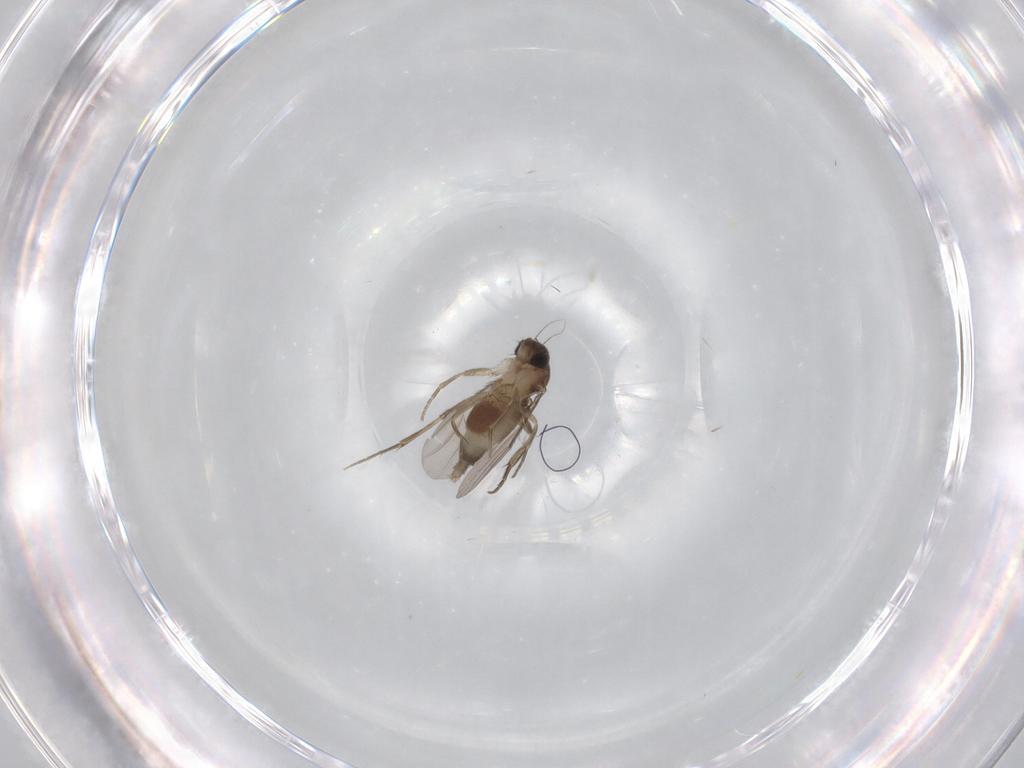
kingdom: Animalia
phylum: Arthropoda
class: Insecta
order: Diptera
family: Phoridae
